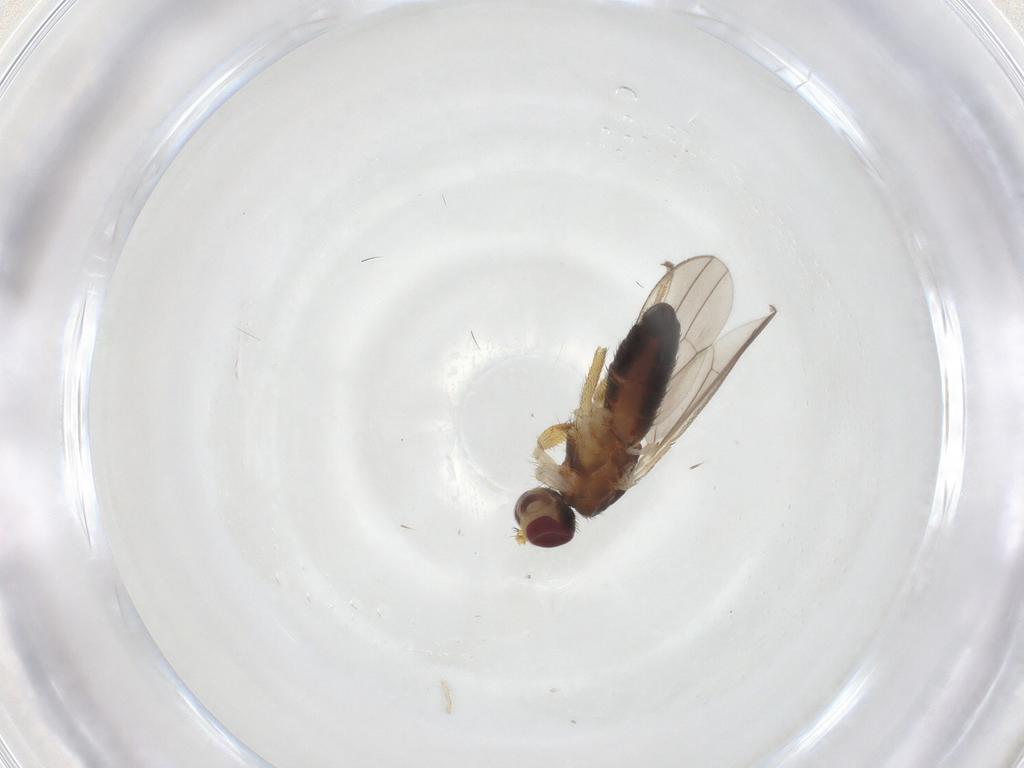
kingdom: Animalia
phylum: Arthropoda
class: Insecta
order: Diptera
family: Heleomyzidae
